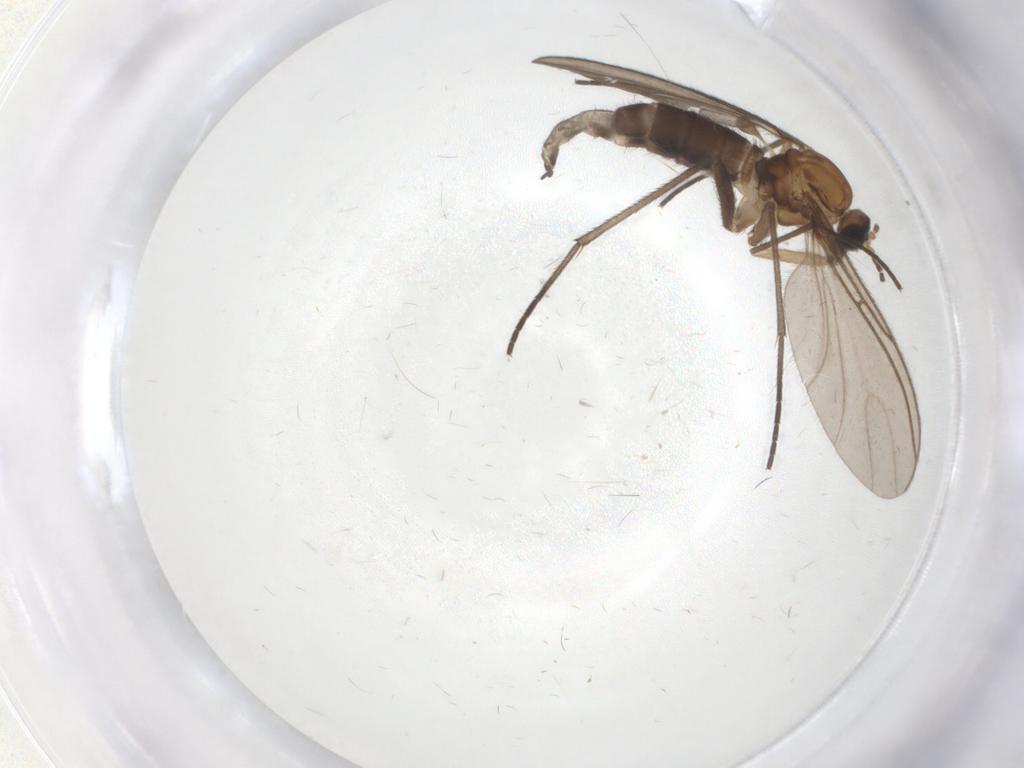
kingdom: Animalia
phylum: Arthropoda
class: Insecta
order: Diptera
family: Sciaridae
